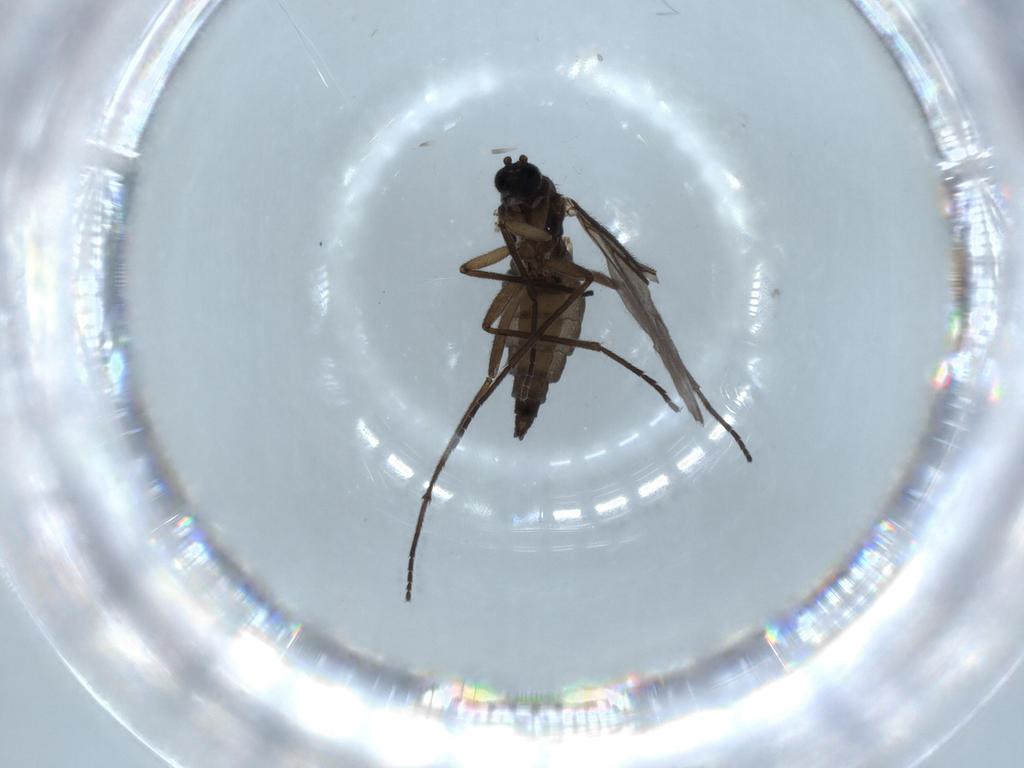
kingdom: Animalia
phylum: Arthropoda
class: Insecta
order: Diptera
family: Sciaridae
